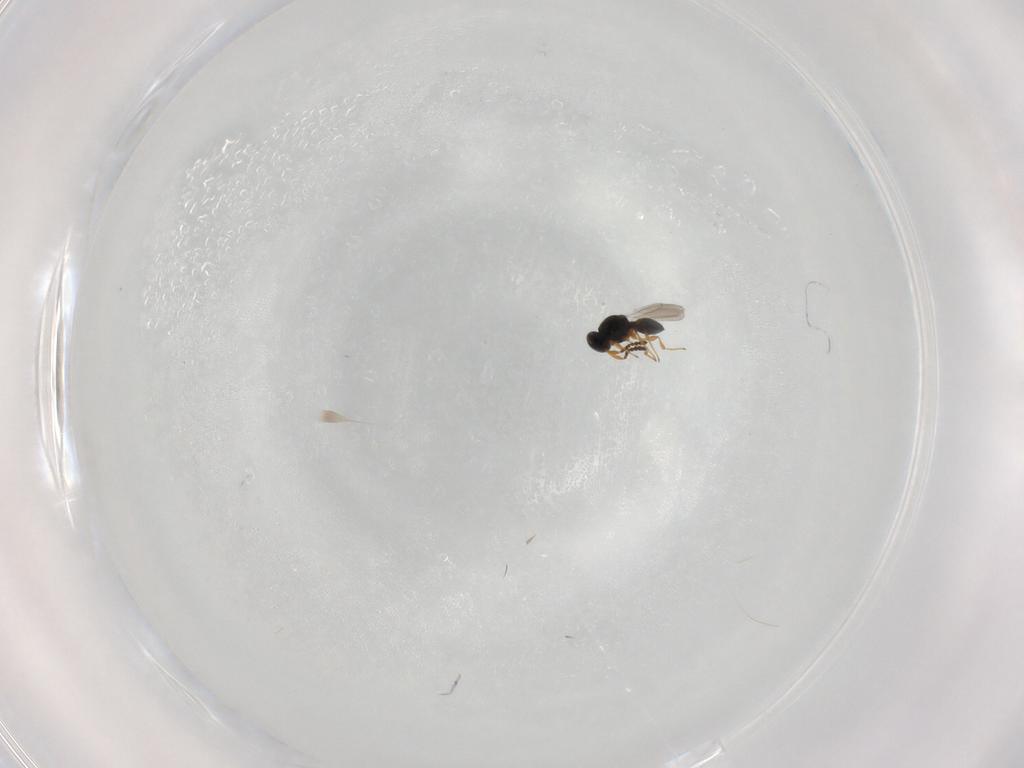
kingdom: Animalia
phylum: Arthropoda
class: Insecta
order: Hymenoptera
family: Platygastridae
